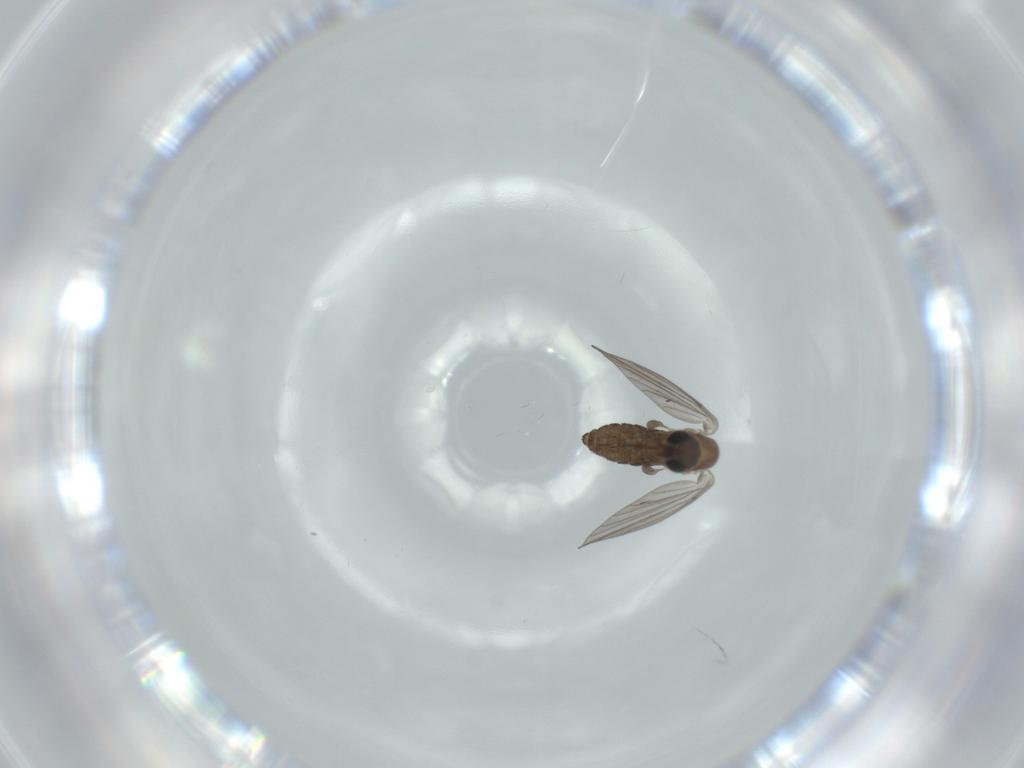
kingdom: Animalia
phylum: Arthropoda
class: Insecta
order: Diptera
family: Psychodidae
